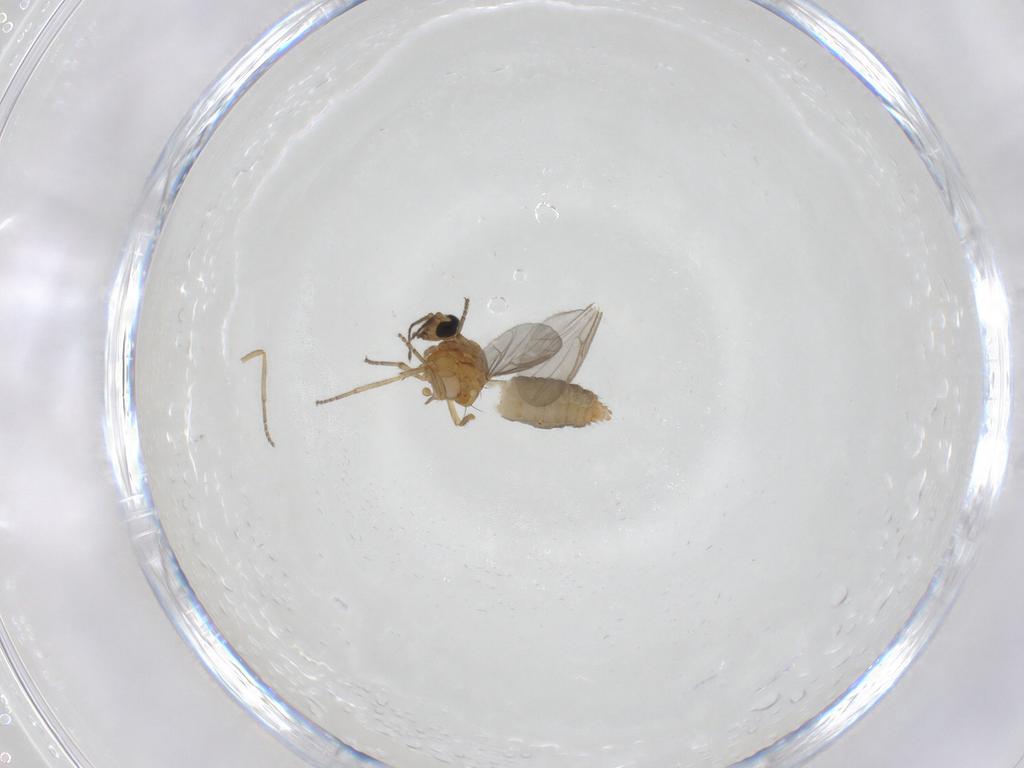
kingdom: Animalia
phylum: Arthropoda
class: Insecta
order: Diptera
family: Ceratopogonidae
